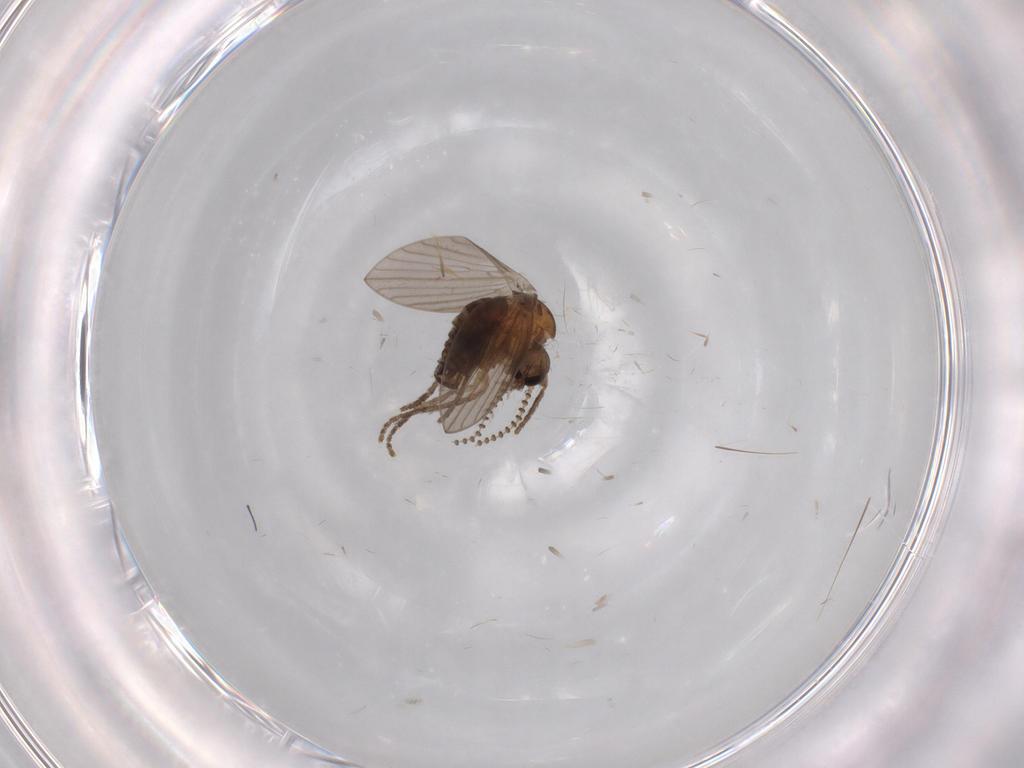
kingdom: Animalia
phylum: Arthropoda
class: Insecta
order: Diptera
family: Psychodidae
